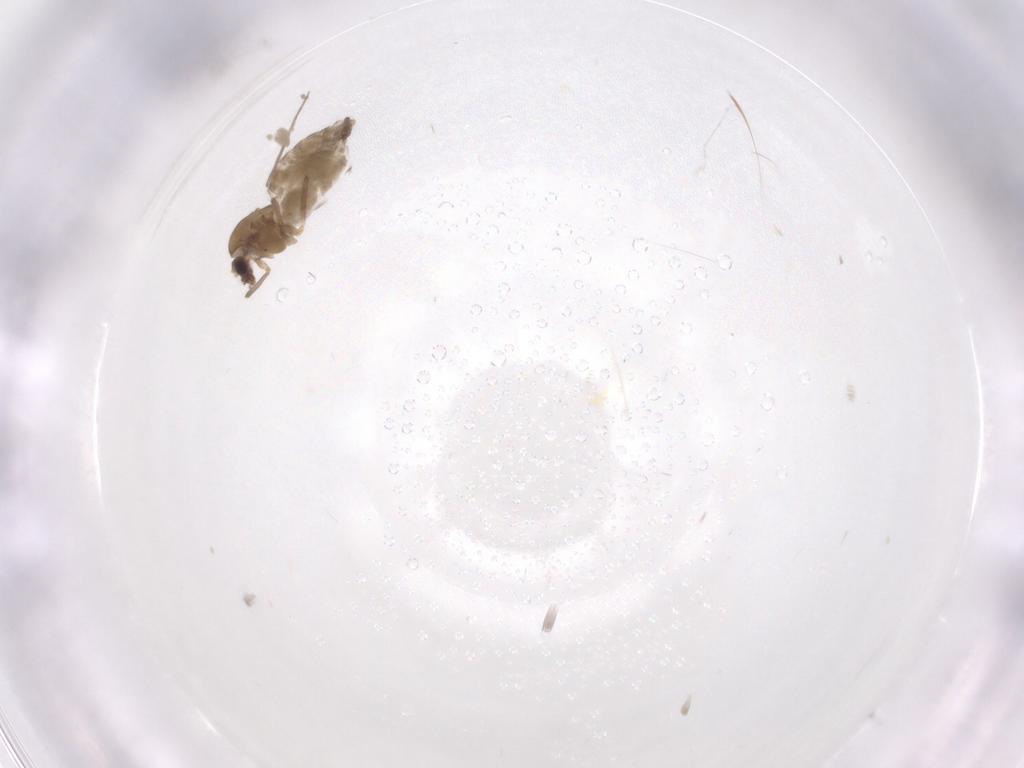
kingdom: Animalia
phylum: Arthropoda
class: Insecta
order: Diptera
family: Chironomidae
